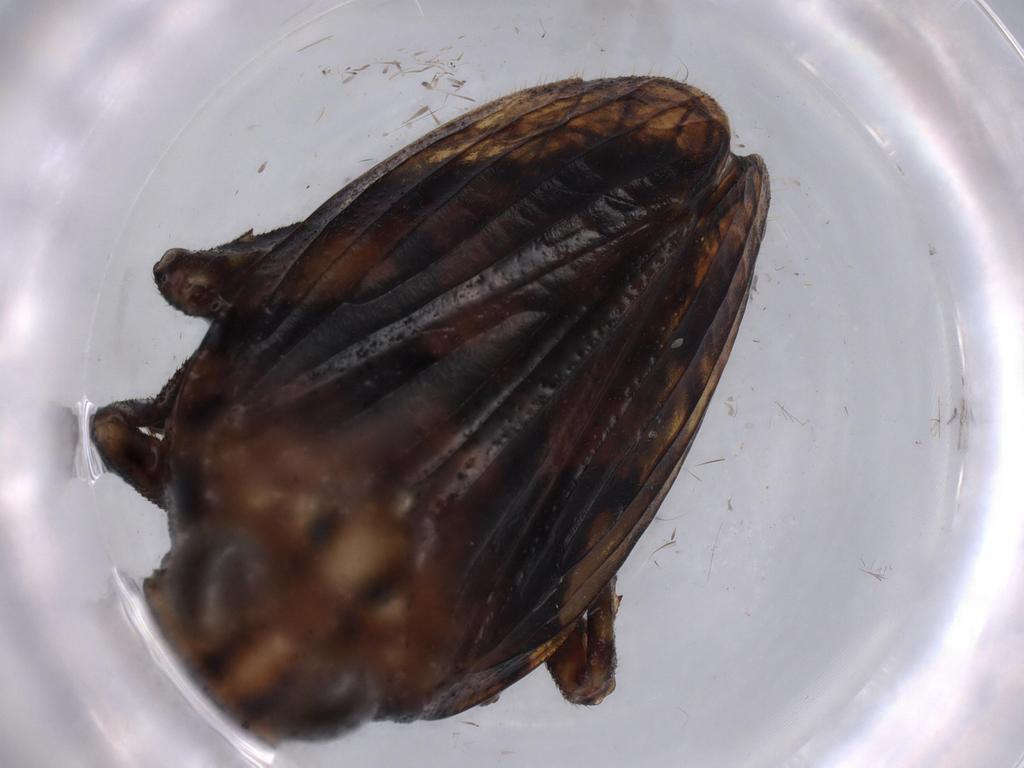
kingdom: Animalia
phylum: Arthropoda
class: Insecta
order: Hemiptera
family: Issidae
